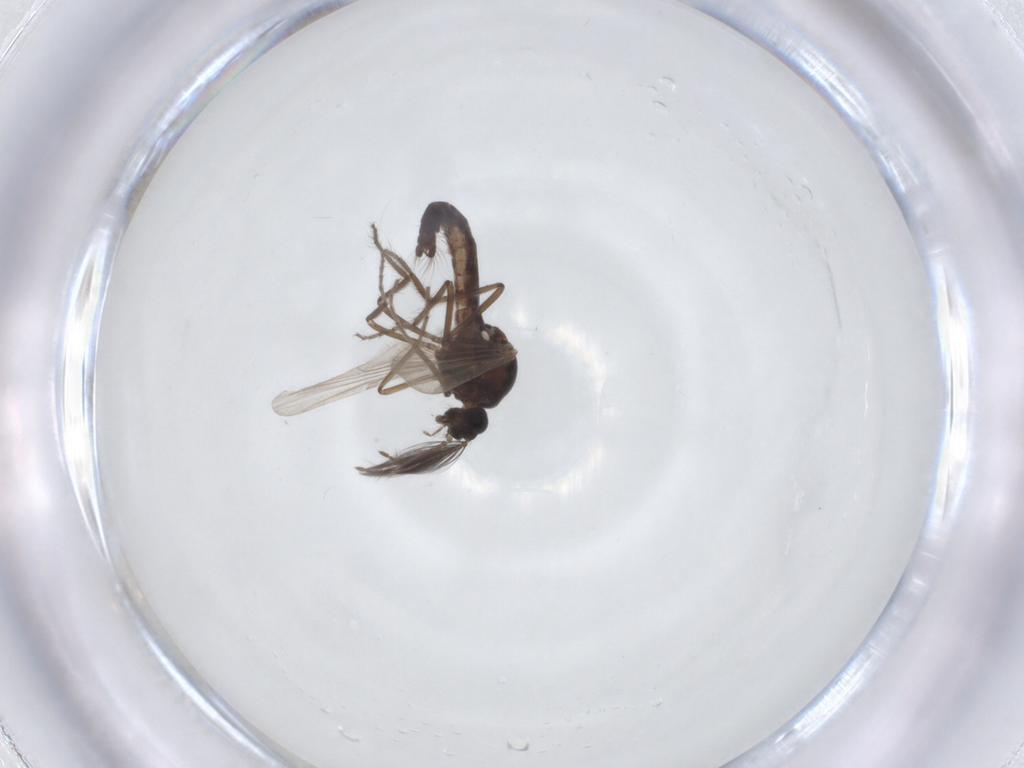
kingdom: Animalia
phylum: Arthropoda
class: Insecta
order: Diptera
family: Ceratopogonidae
